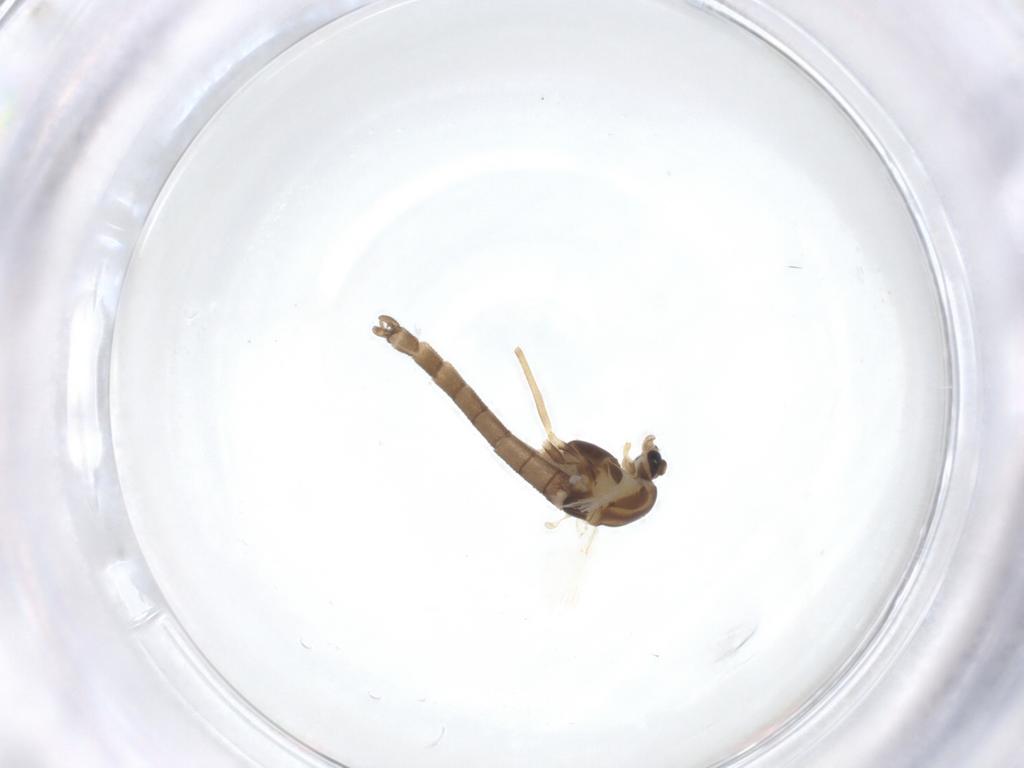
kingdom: Animalia
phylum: Arthropoda
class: Insecta
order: Diptera
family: Chironomidae
